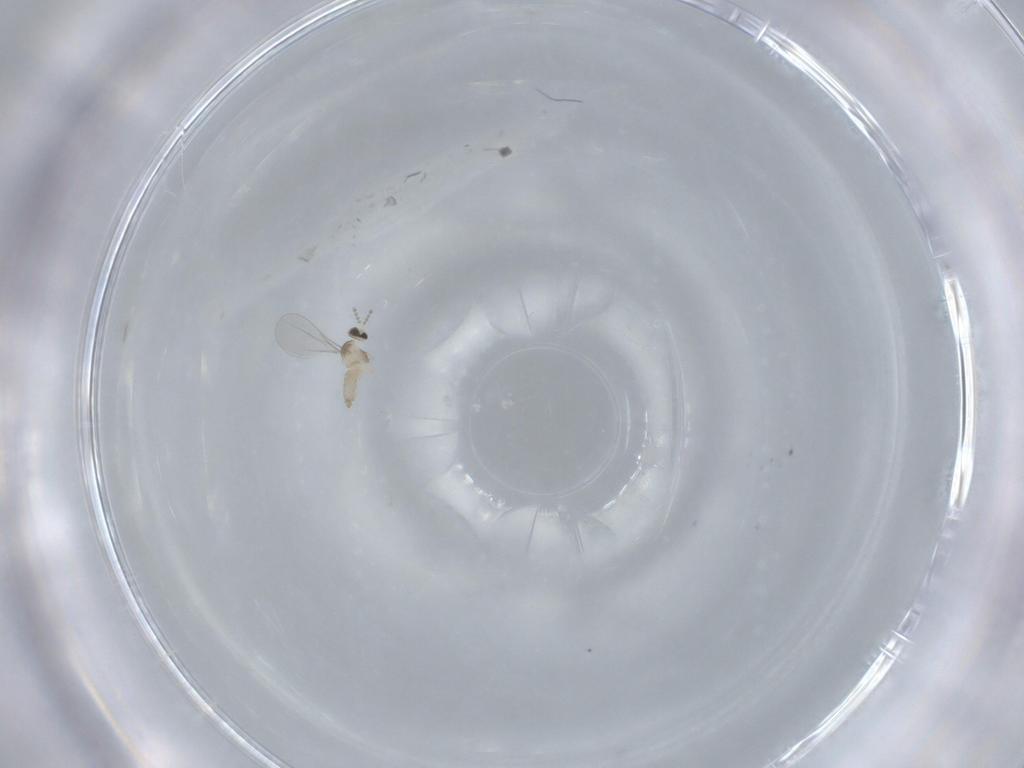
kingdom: Animalia
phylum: Arthropoda
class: Insecta
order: Diptera
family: Cecidomyiidae
